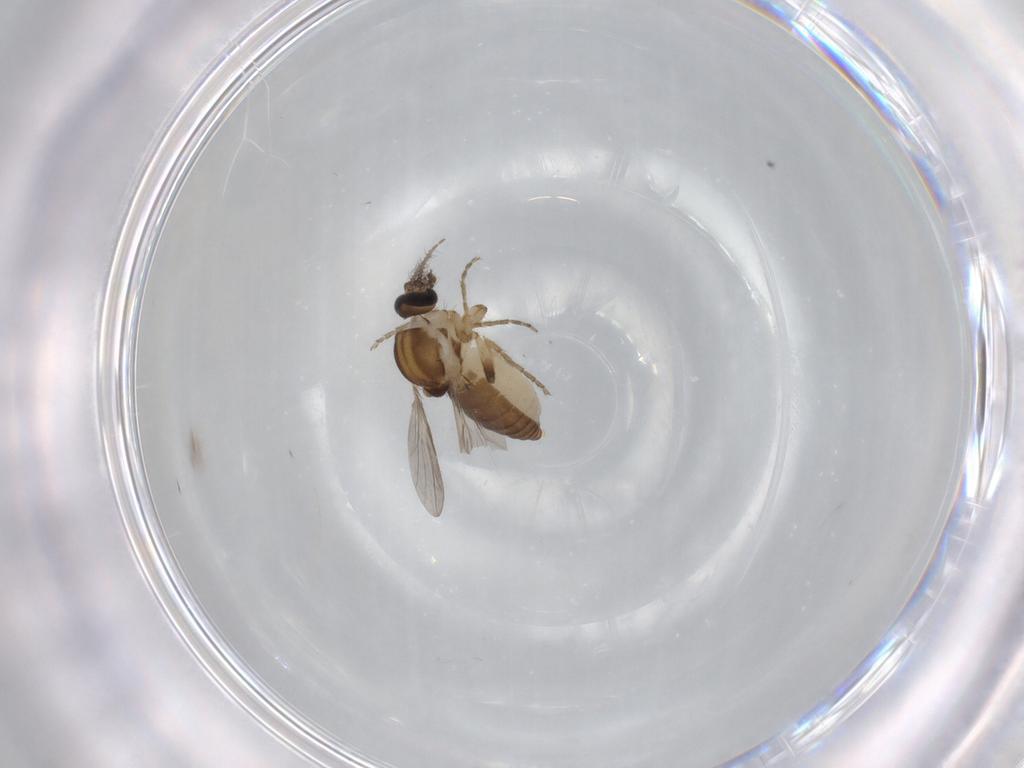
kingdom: Animalia
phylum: Arthropoda
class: Insecta
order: Diptera
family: Ceratopogonidae
